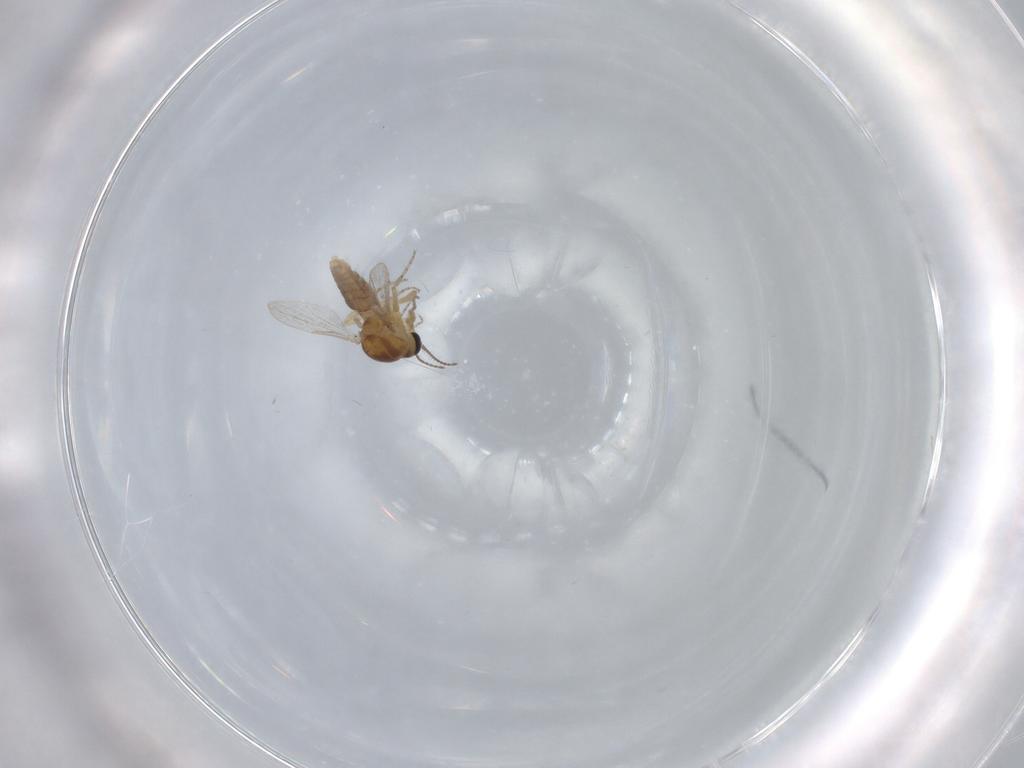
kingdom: Animalia
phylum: Arthropoda
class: Insecta
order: Diptera
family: Ceratopogonidae
